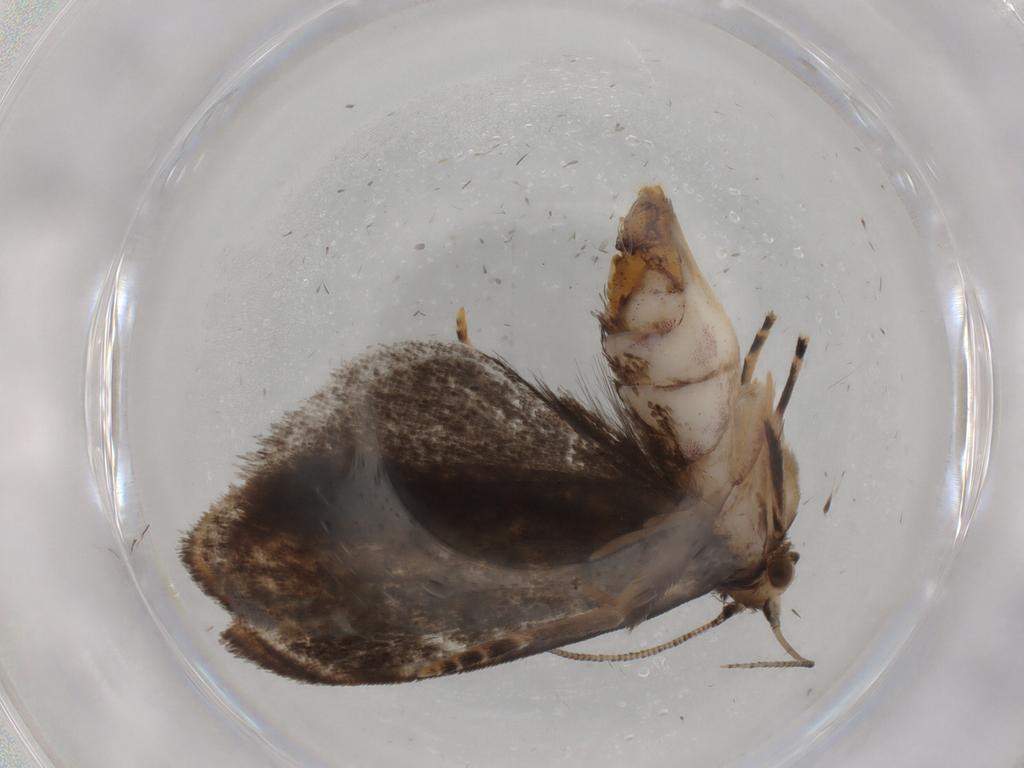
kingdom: Animalia
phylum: Arthropoda
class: Insecta
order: Lepidoptera
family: Dryadaulidae
